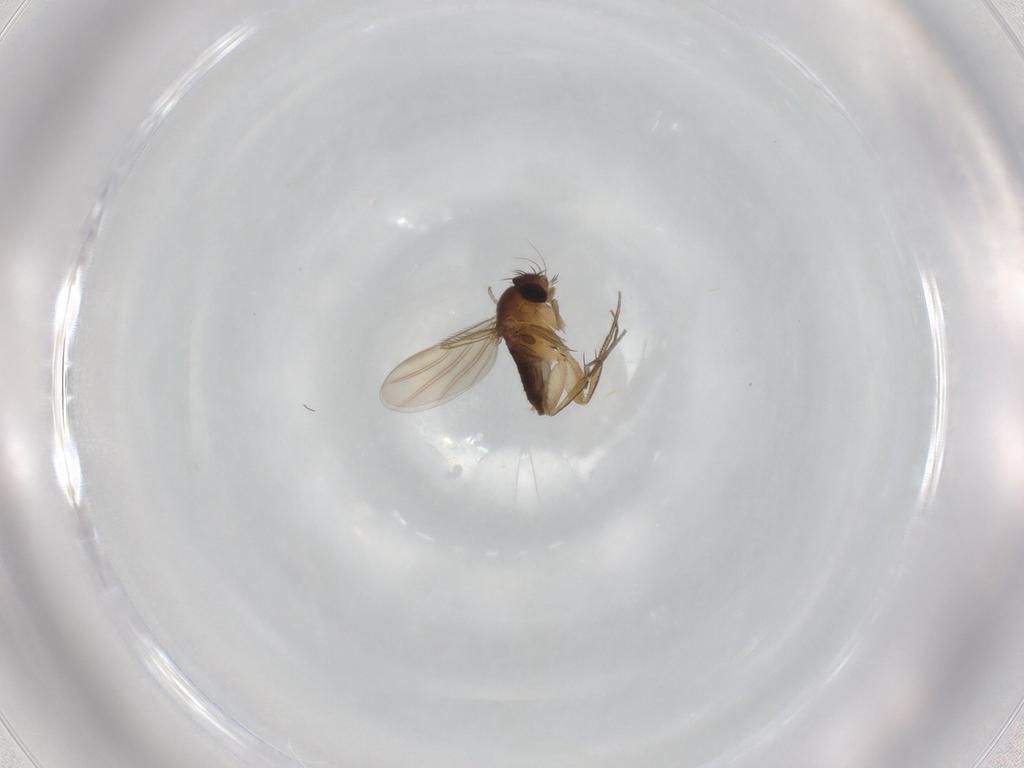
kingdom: Animalia
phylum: Arthropoda
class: Insecta
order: Diptera
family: Phoridae
